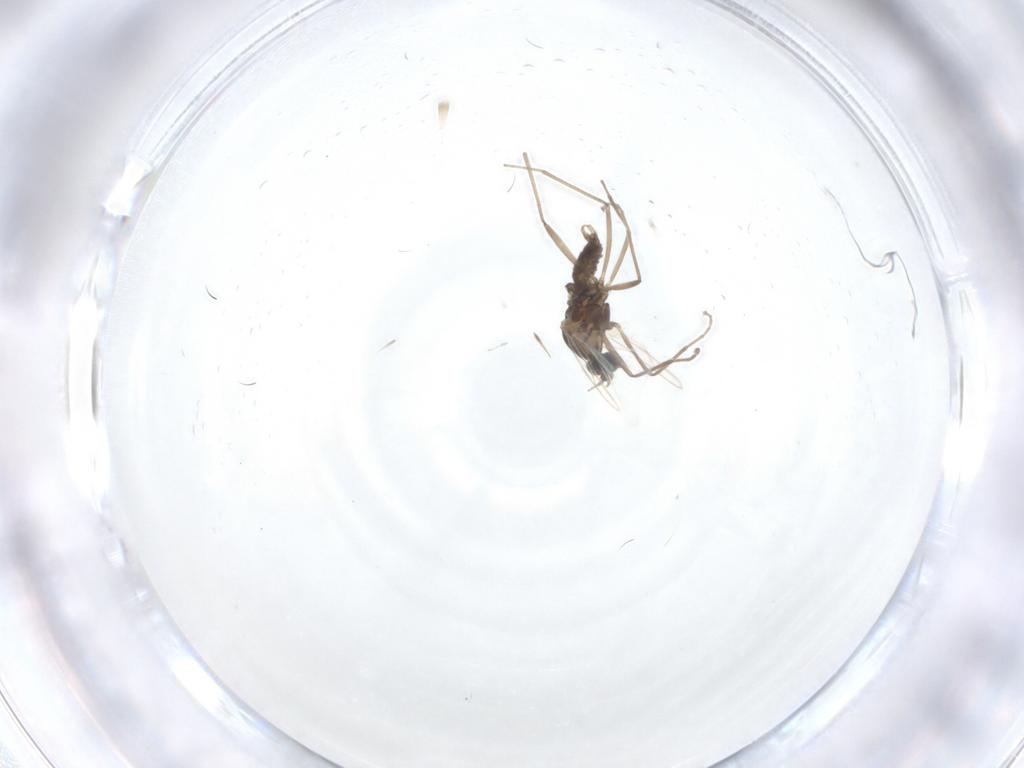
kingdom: Animalia
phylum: Arthropoda
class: Insecta
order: Diptera
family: Cecidomyiidae
